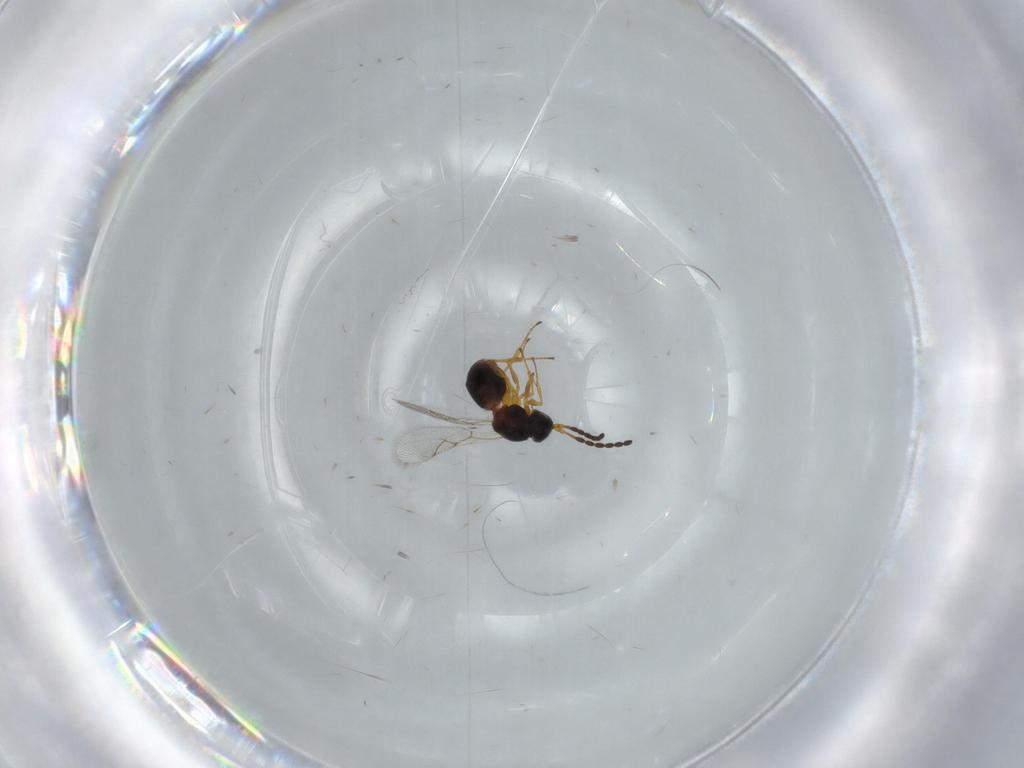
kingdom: Animalia
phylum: Arthropoda
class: Insecta
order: Hymenoptera
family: Figitidae
